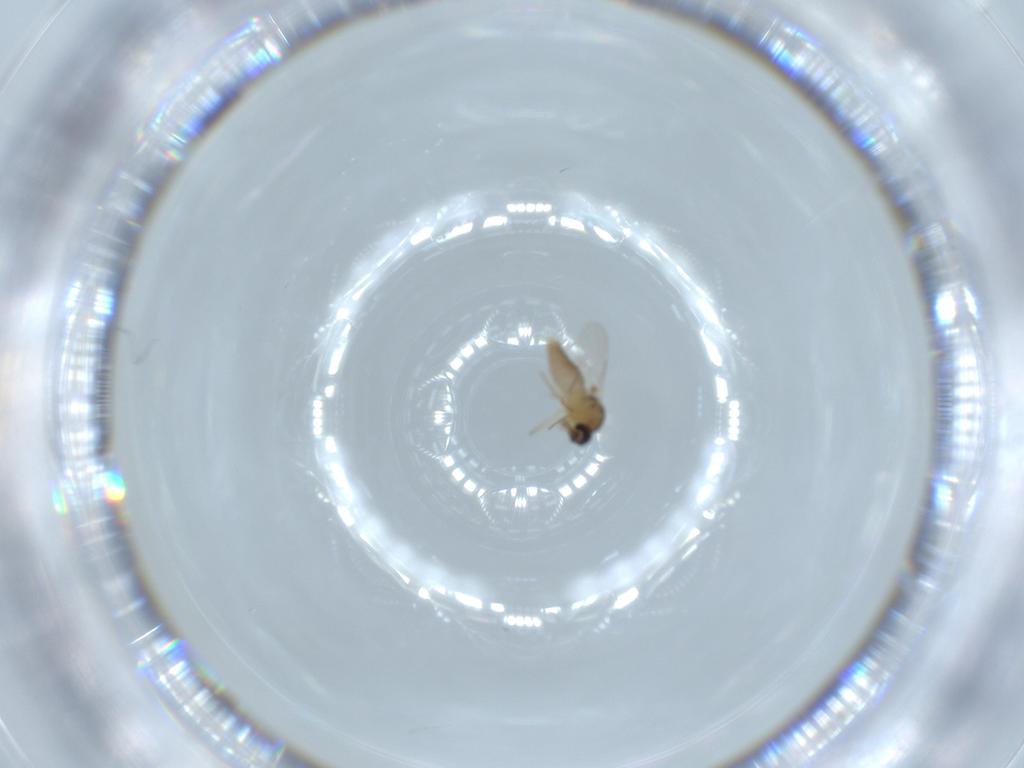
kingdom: Animalia
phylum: Arthropoda
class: Insecta
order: Diptera
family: Ceratopogonidae
